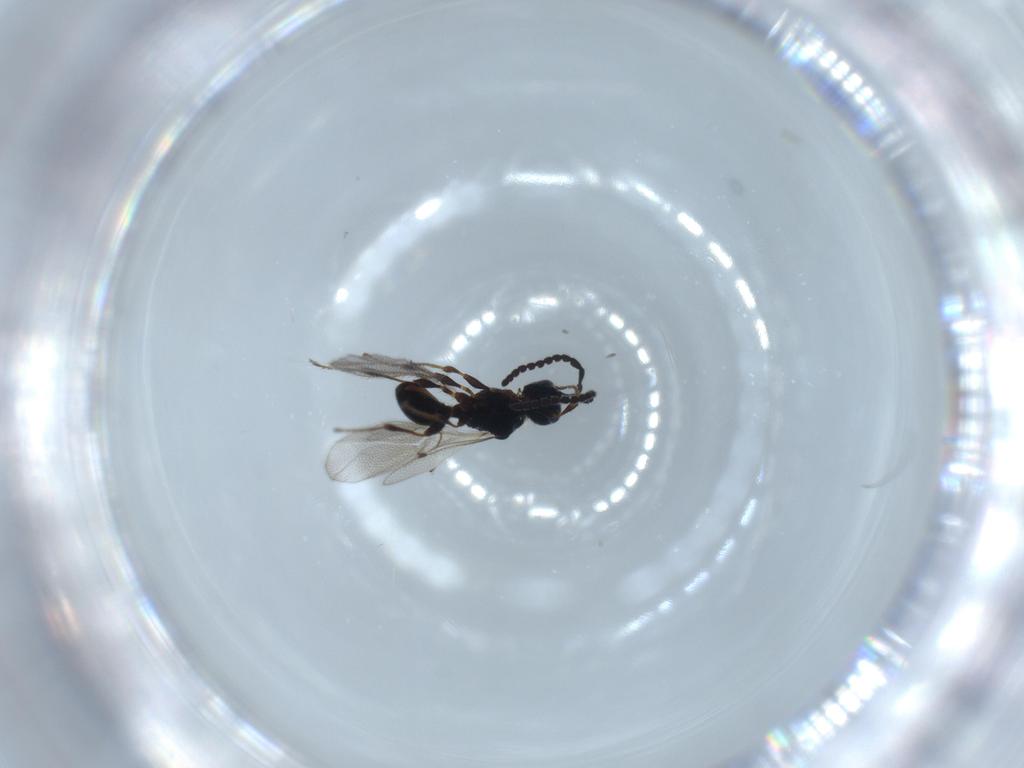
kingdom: Animalia
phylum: Arthropoda
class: Insecta
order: Hymenoptera
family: Diapriidae
